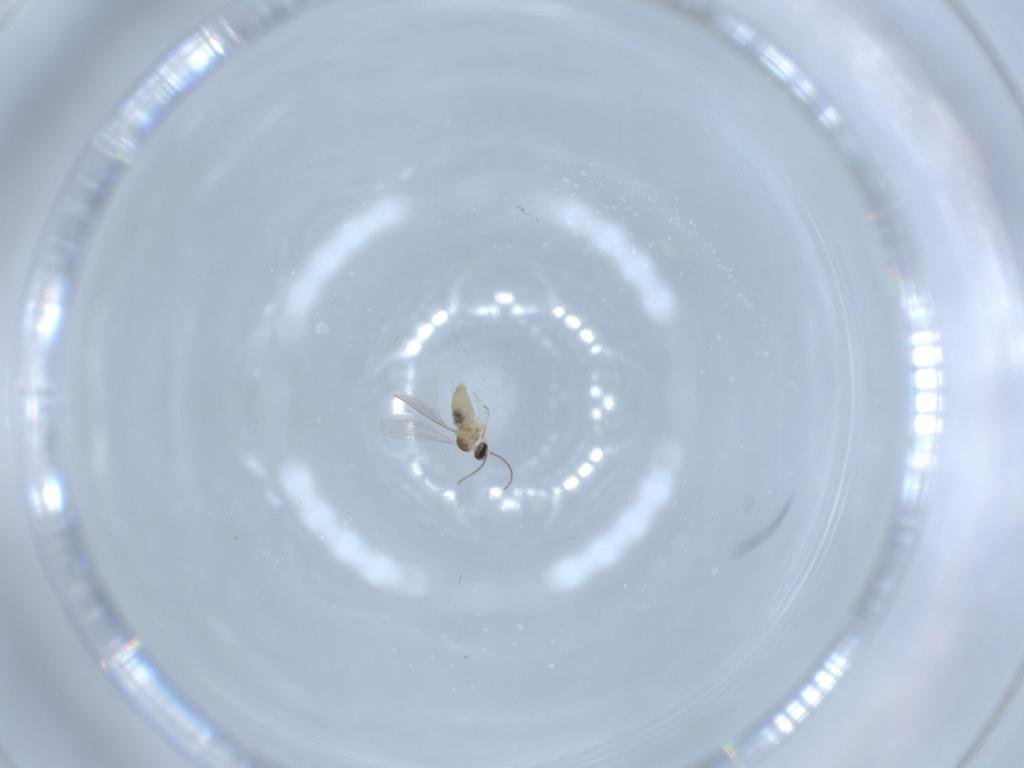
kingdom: Animalia
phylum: Arthropoda
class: Insecta
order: Diptera
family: Cecidomyiidae
